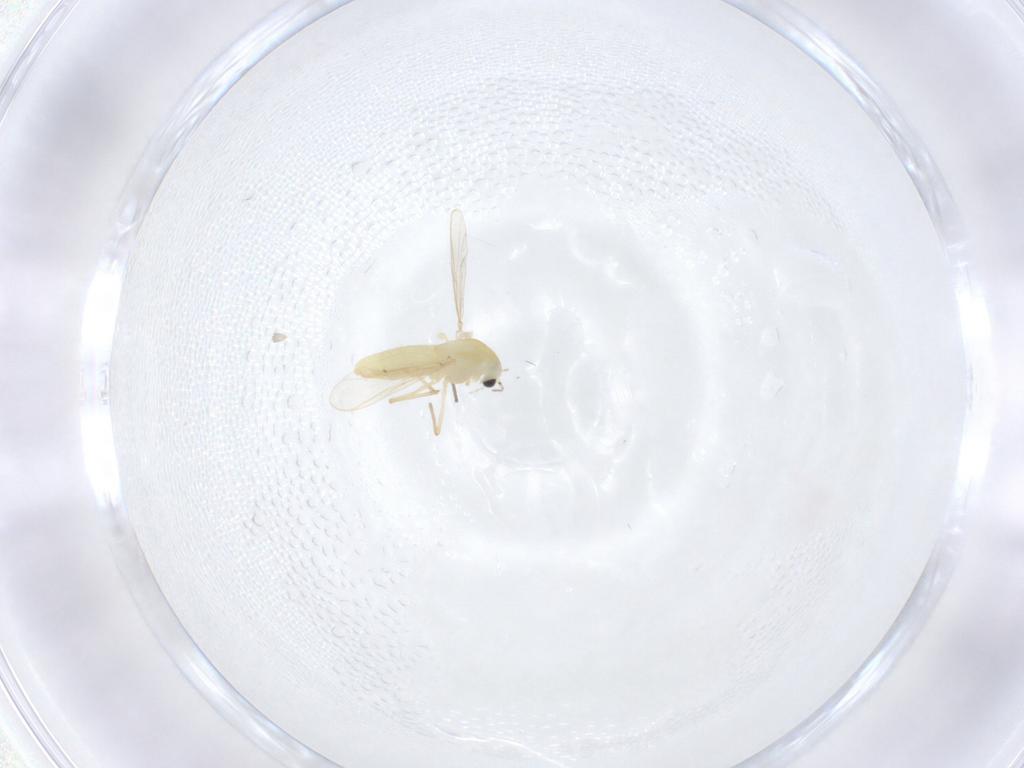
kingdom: Animalia
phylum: Arthropoda
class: Insecta
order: Diptera
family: Chironomidae
